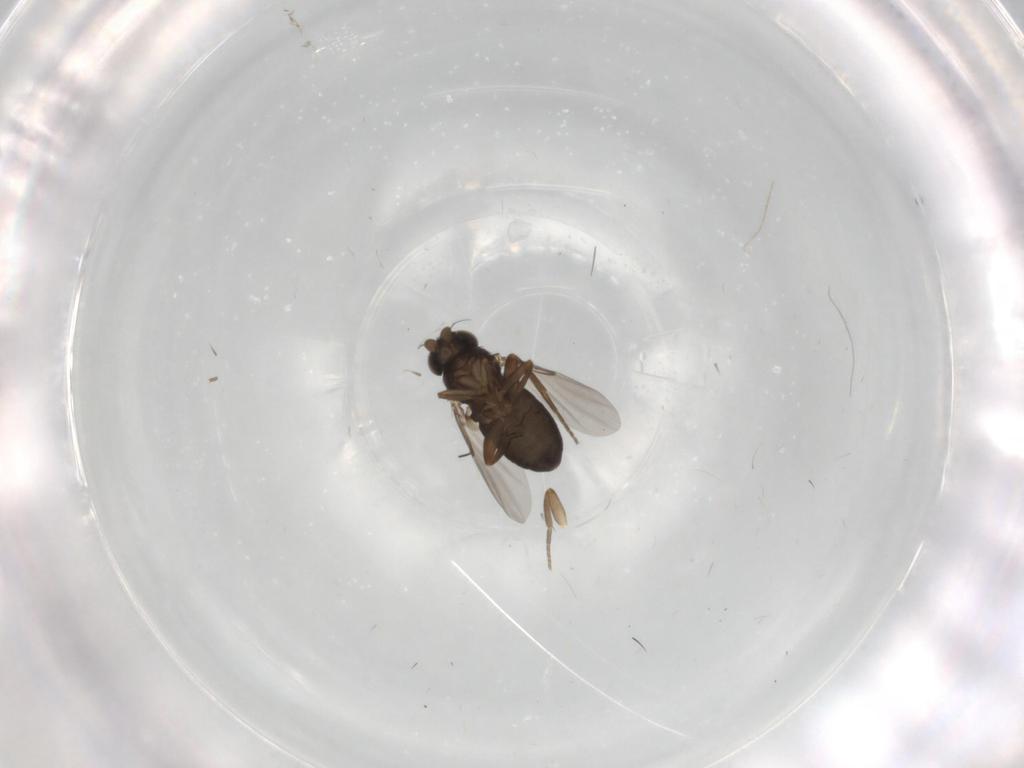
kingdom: Animalia
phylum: Arthropoda
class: Insecta
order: Diptera
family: Phoridae
